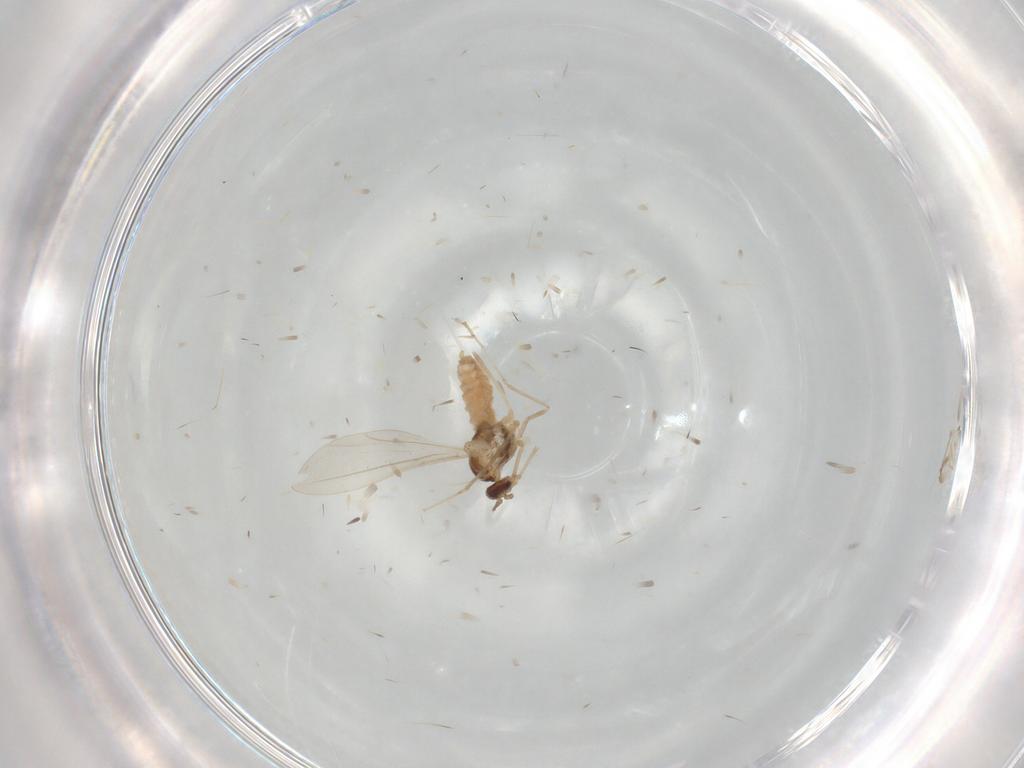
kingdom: Animalia
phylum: Arthropoda
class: Insecta
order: Diptera
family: Cecidomyiidae
